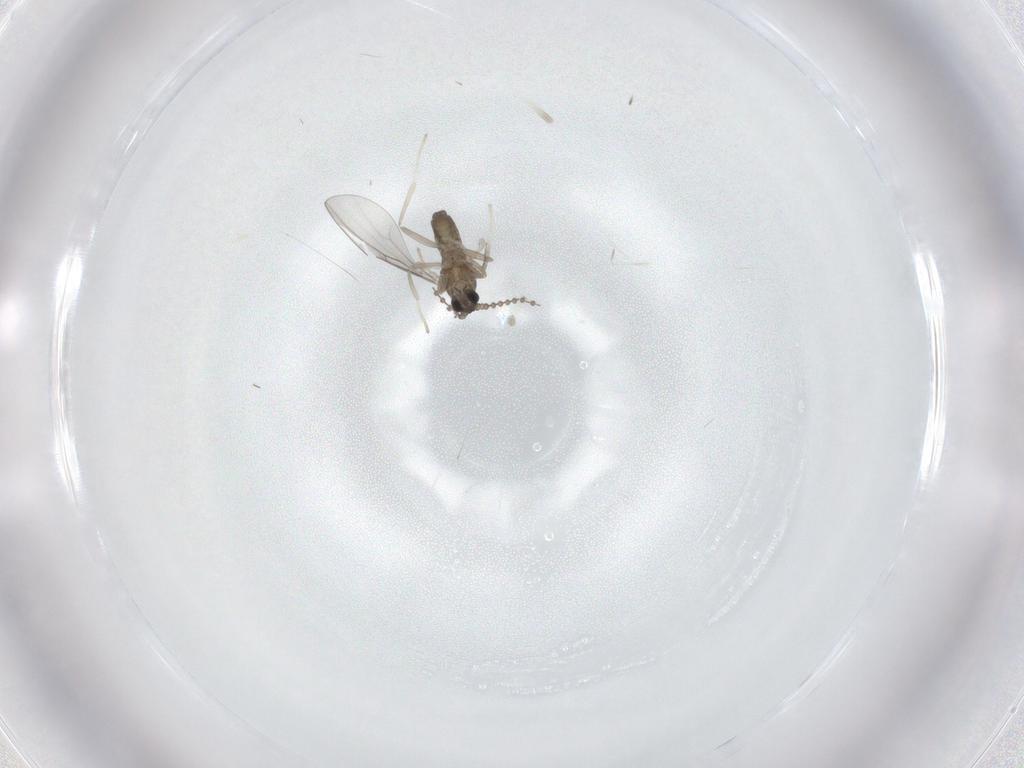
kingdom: Animalia
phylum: Arthropoda
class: Insecta
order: Diptera
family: Cecidomyiidae
